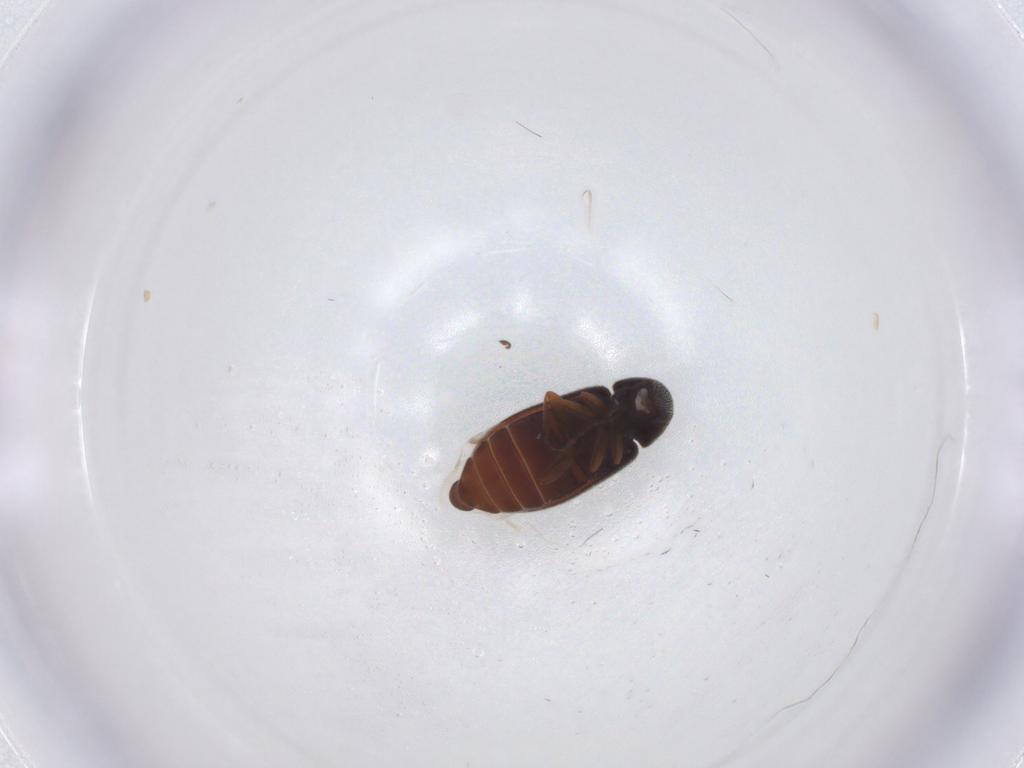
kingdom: Animalia
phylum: Arthropoda
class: Insecta
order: Coleoptera
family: Rhadalidae
